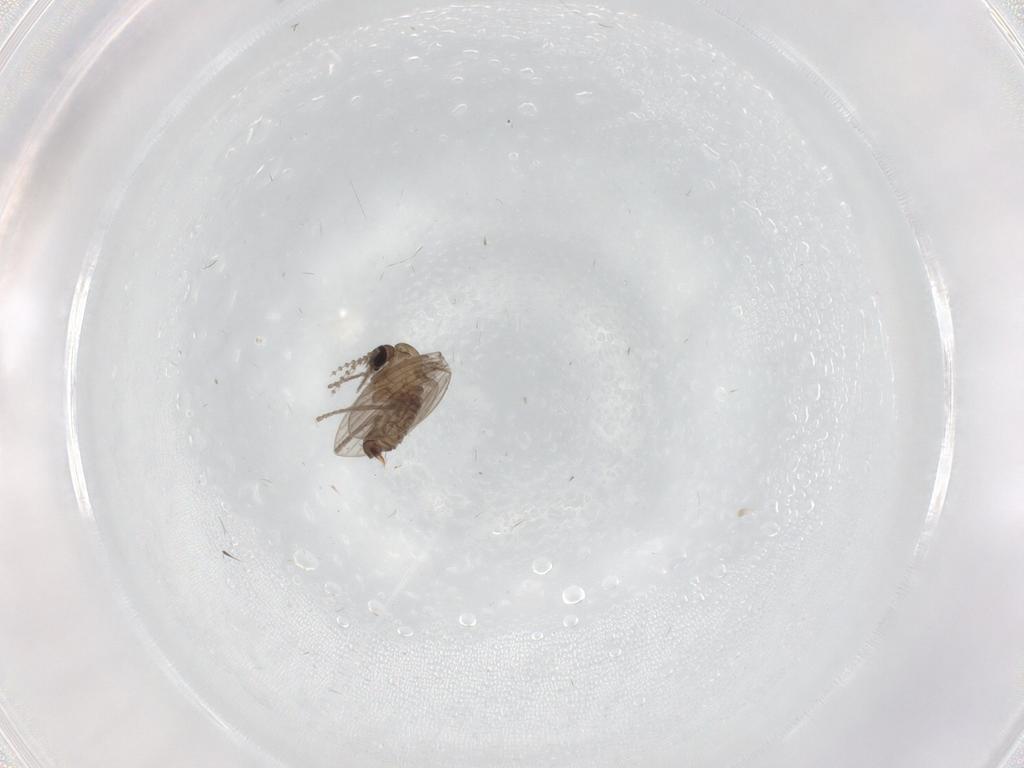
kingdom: Animalia
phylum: Arthropoda
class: Insecta
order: Diptera
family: Psychodidae
